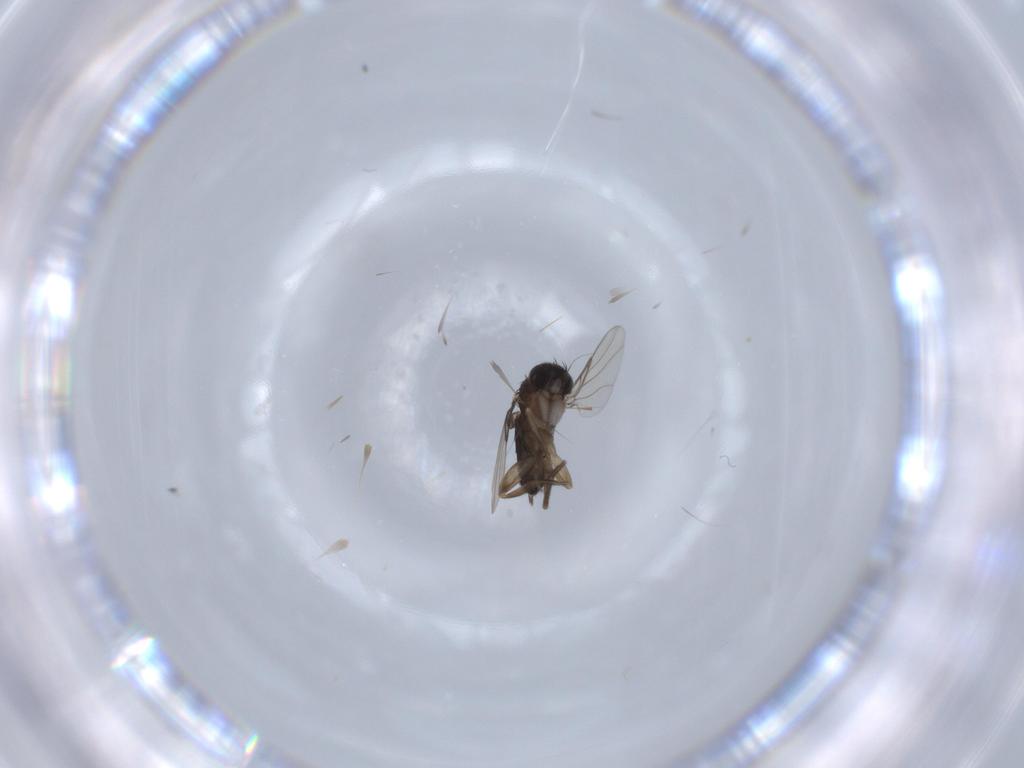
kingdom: Animalia
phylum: Arthropoda
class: Insecta
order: Diptera
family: Phoridae
